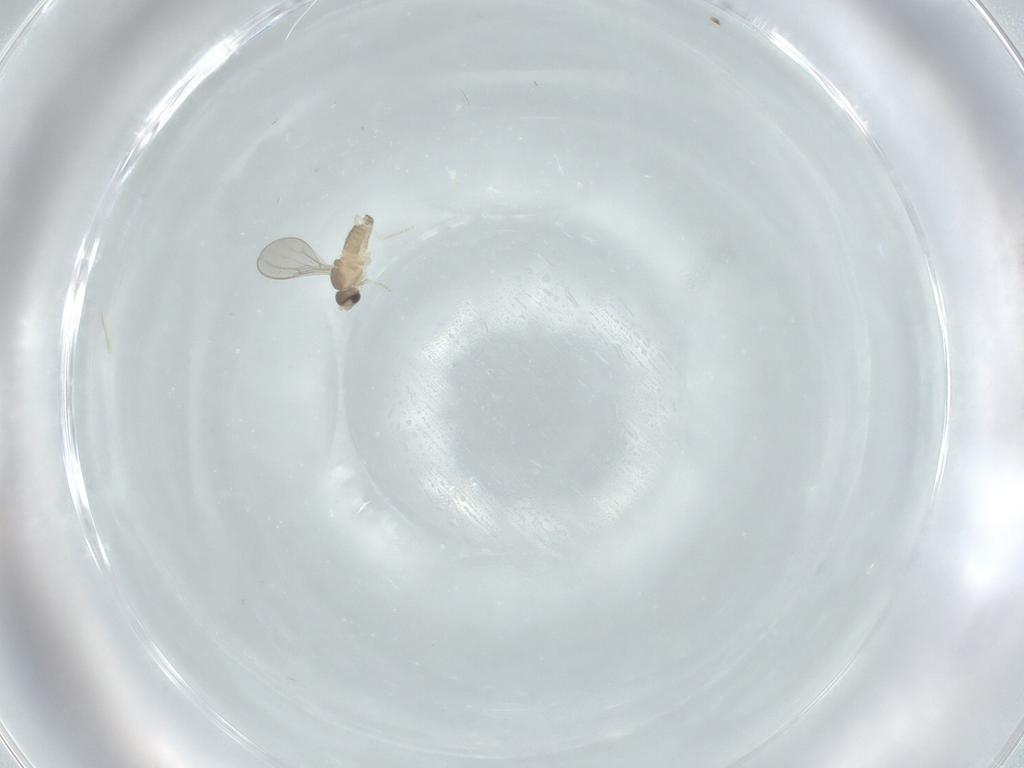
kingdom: Animalia
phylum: Arthropoda
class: Insecta
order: Diptera
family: Cecidomyiidae
